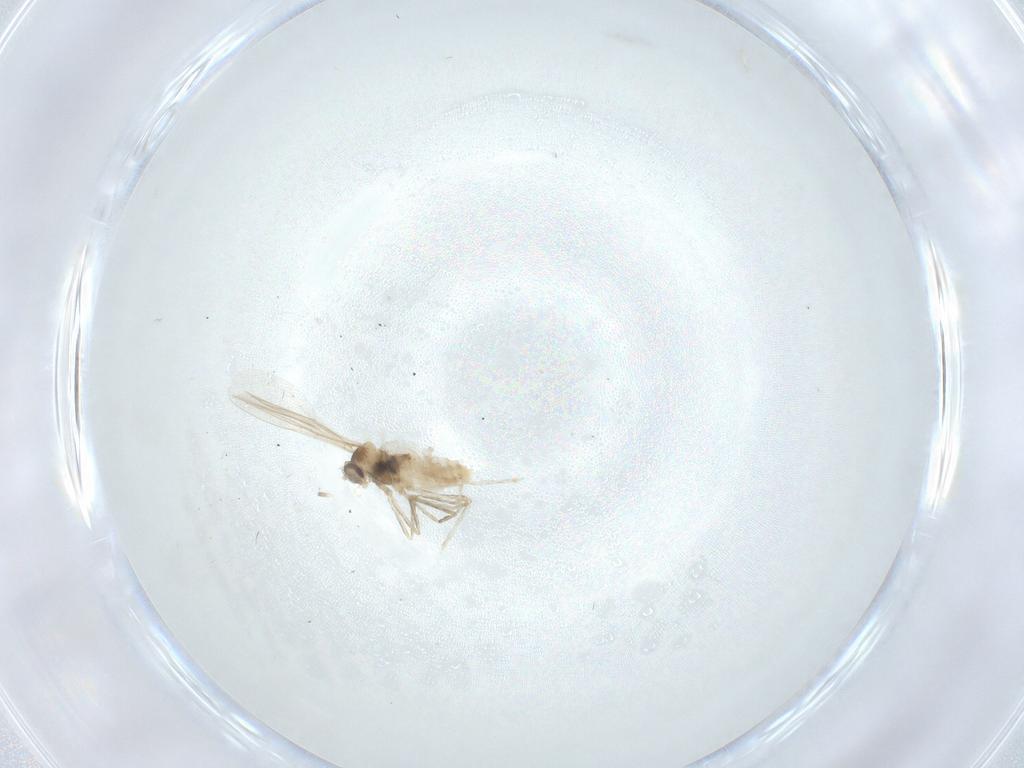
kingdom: Animalia
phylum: Arthropoda
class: Insecta
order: Diptera
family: Cecidomyiidae
